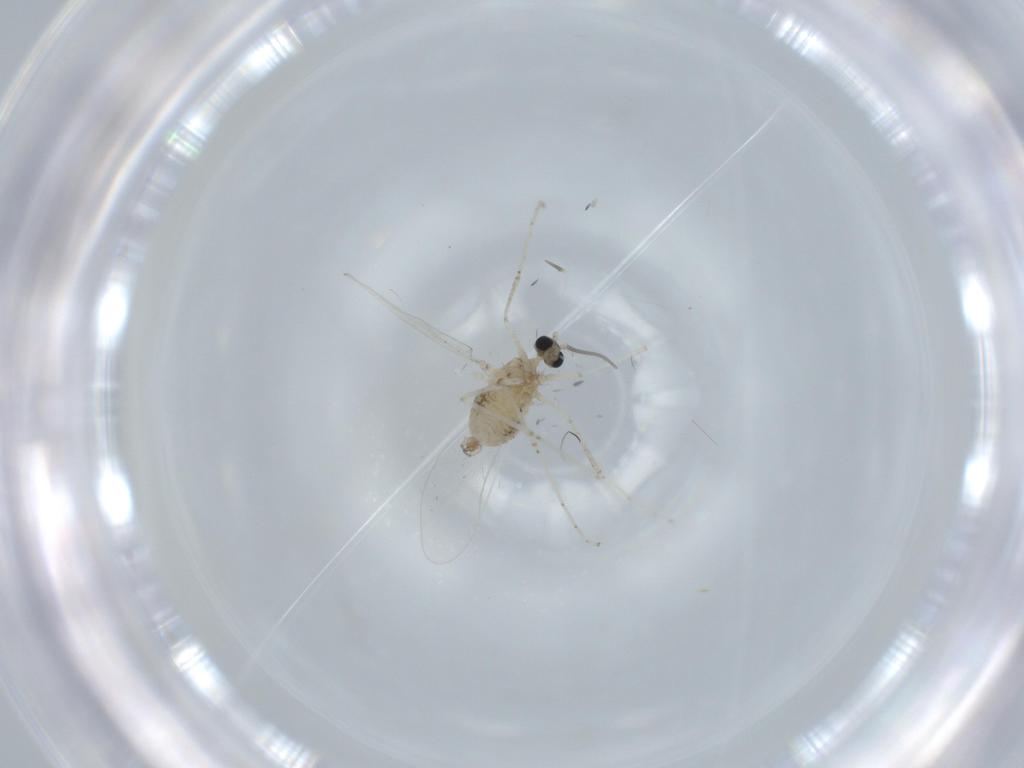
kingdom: Animalia
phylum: Arthropoda
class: Insecta
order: Diptera
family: Cecidomyiidae
